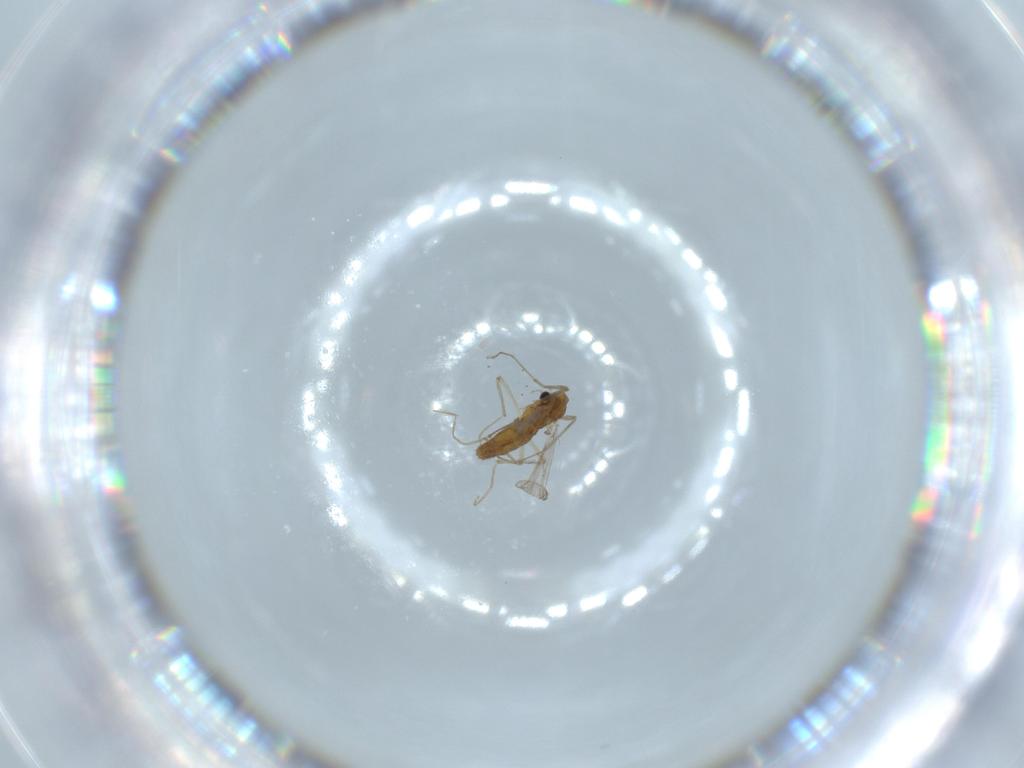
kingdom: Animalia
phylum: Arthropoda
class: Insecta
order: Diptera
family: Chironomidae
